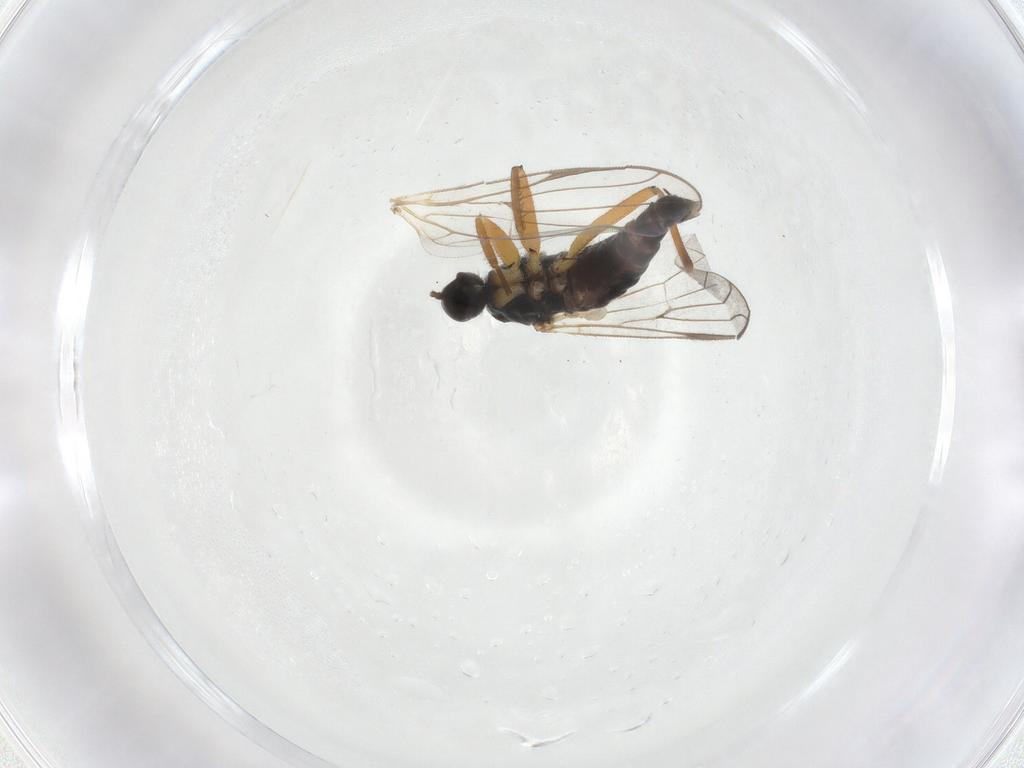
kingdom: Animalia
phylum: Arthropoda
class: Insecta
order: Diptera
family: Hybotidae
